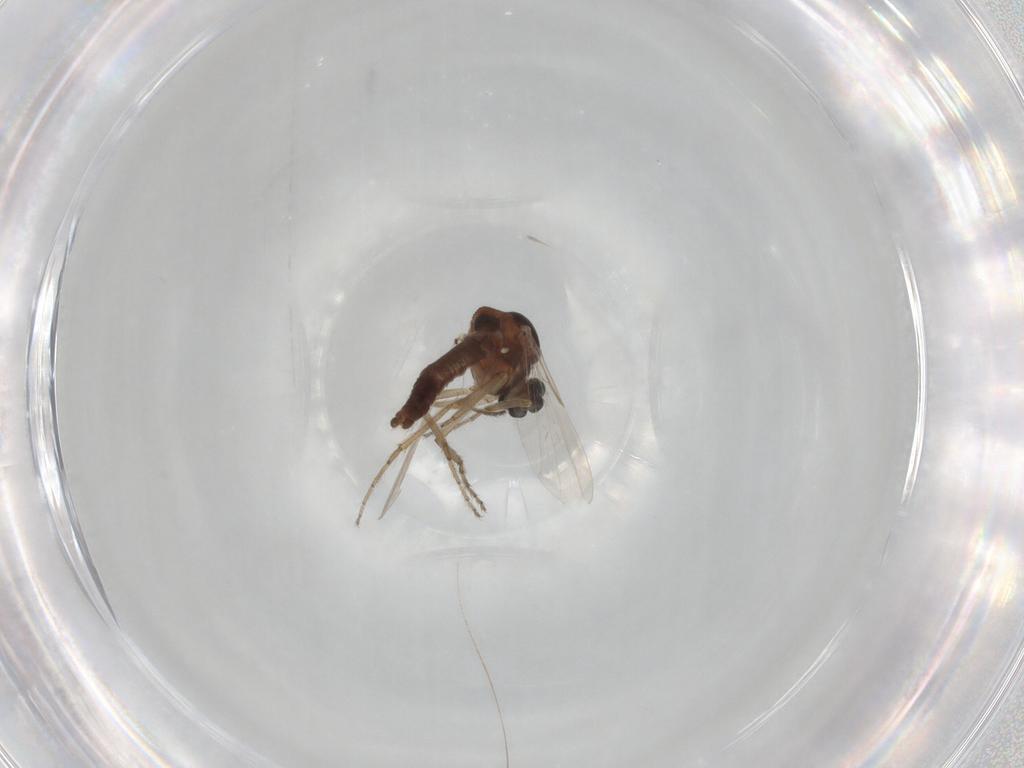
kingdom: Animalia
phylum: Arthropoda
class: Insecta
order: Diptera
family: Ceratopogonidae
